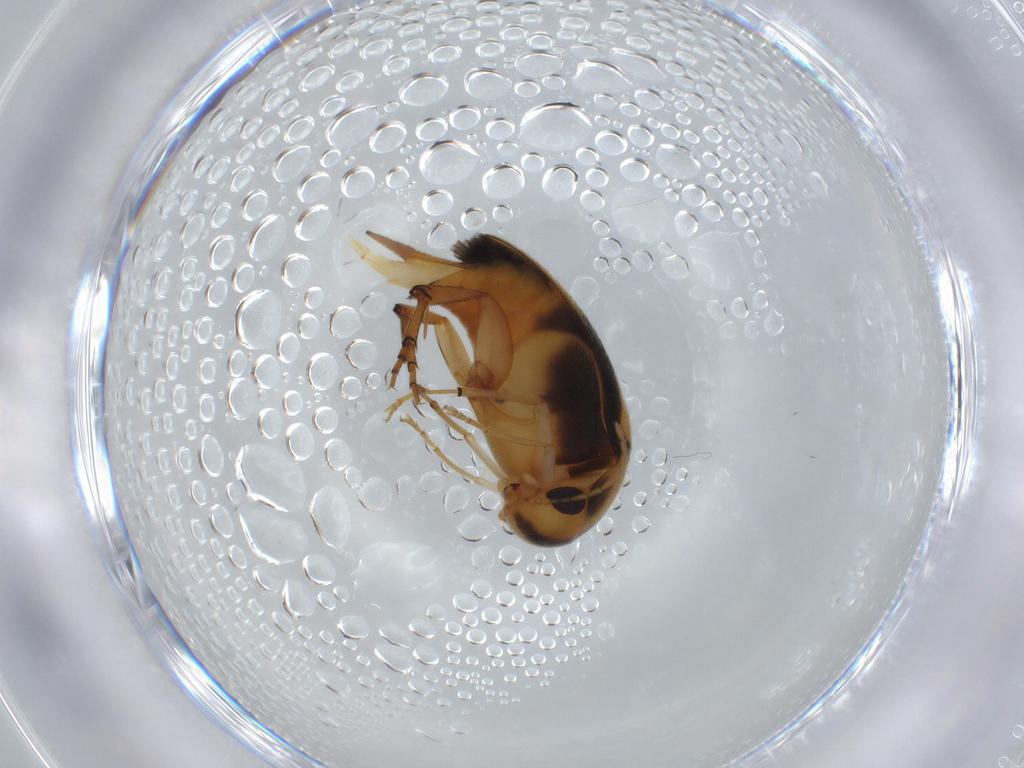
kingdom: Animalia
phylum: Arthropoda
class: Insecta
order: Coleoptera
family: Mordellidae
